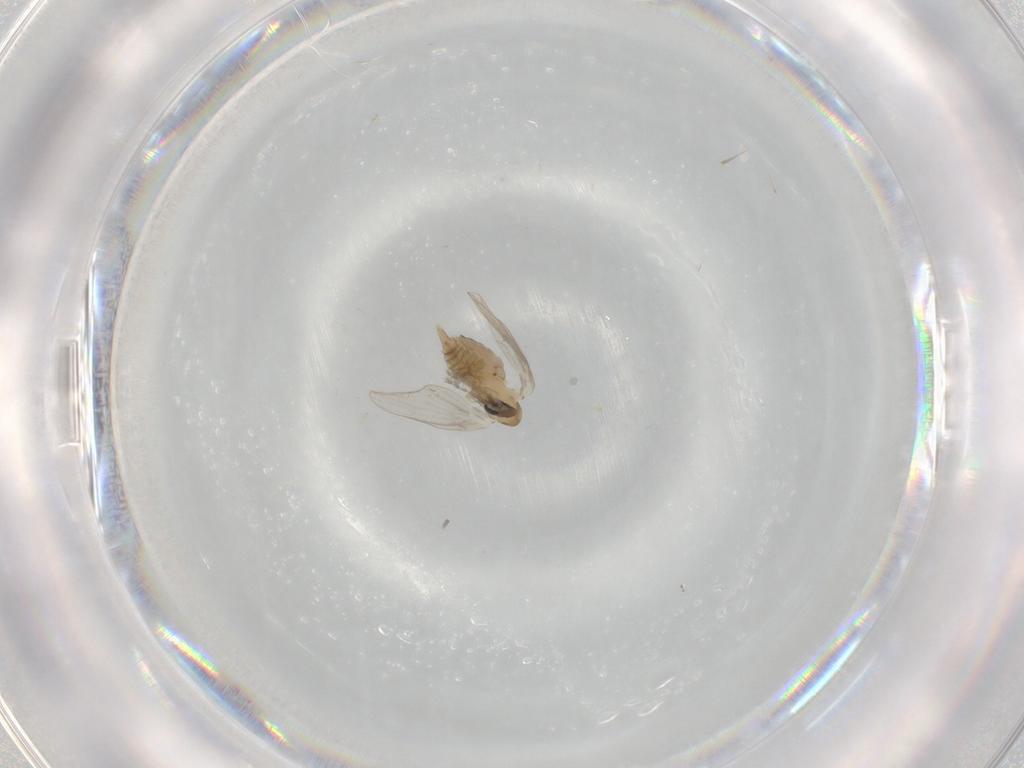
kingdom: Animalia
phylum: Arthropoda
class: Insecta
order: Diptera
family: Psychodidae
